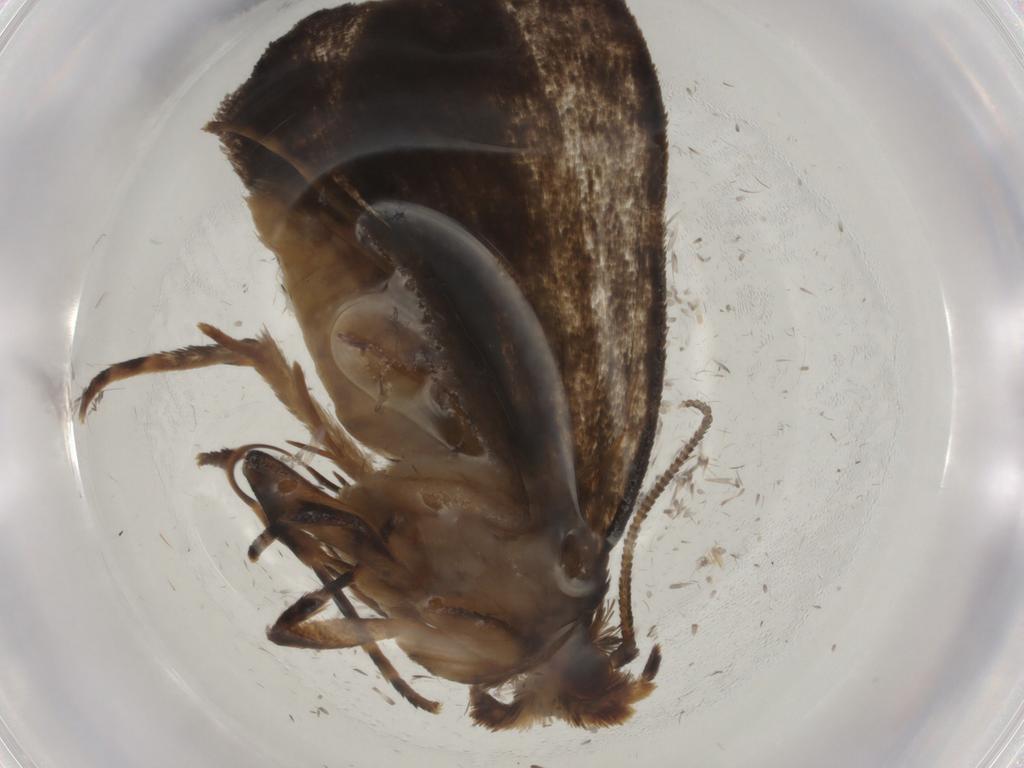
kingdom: Animalia
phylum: Arthropoda
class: Insecta
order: Lepidoptera
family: Tineidae
